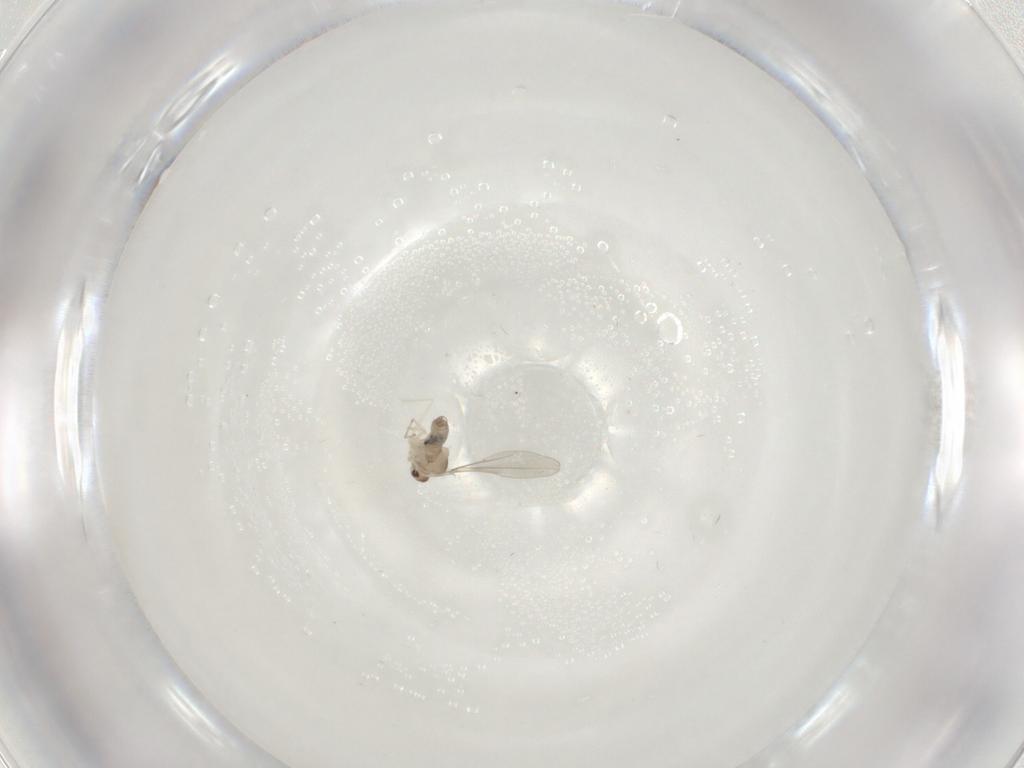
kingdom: Animalia
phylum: Arthropoda
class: Insecta
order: Diptera
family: Cecidomyiidae
